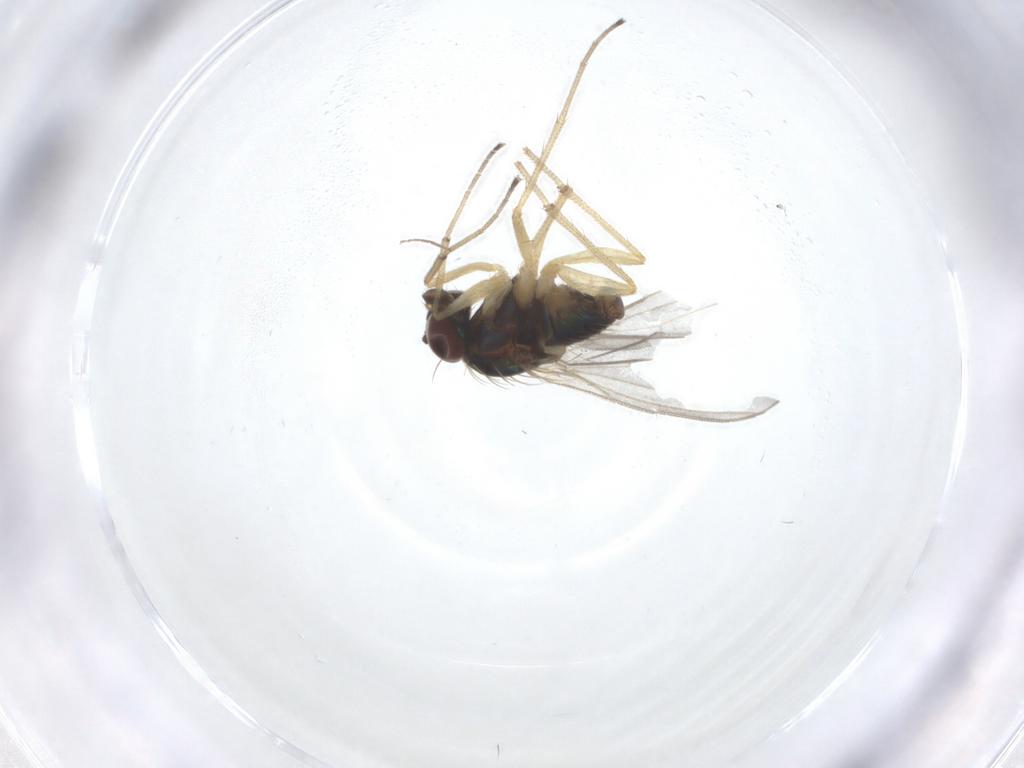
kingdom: Animalia
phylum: Arthropoda
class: Insecta
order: Diptera
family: Dolichopodidae
